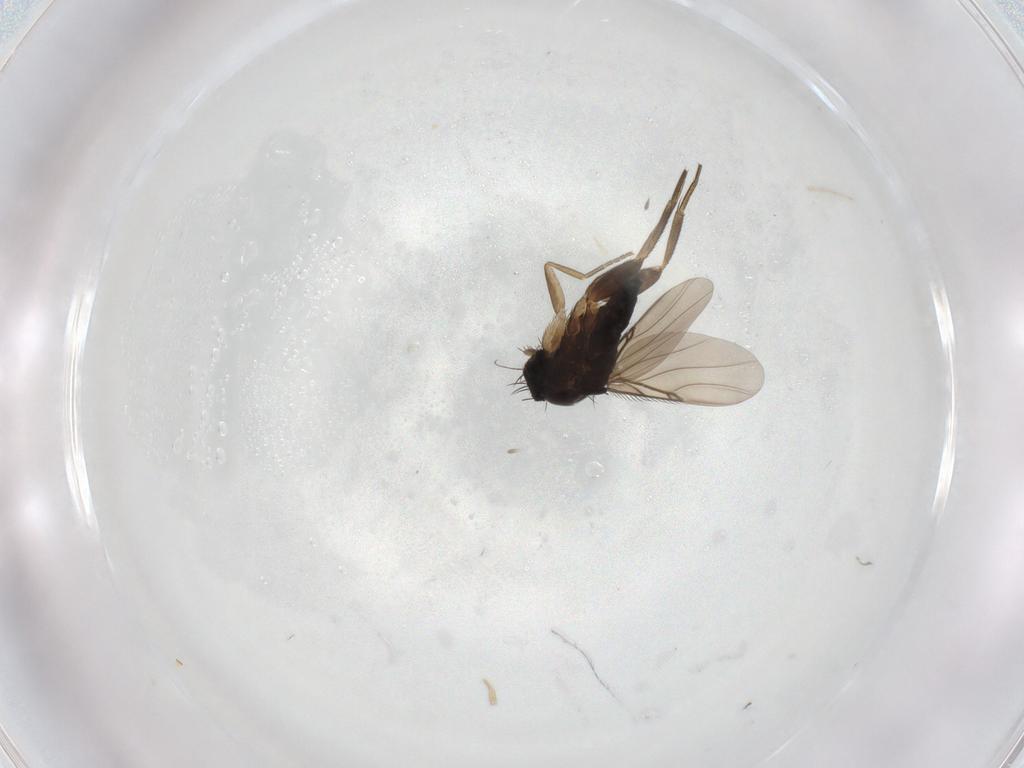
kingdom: Animalia
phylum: Arthropoda
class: Insecta
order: Diptera
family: Phoridae
